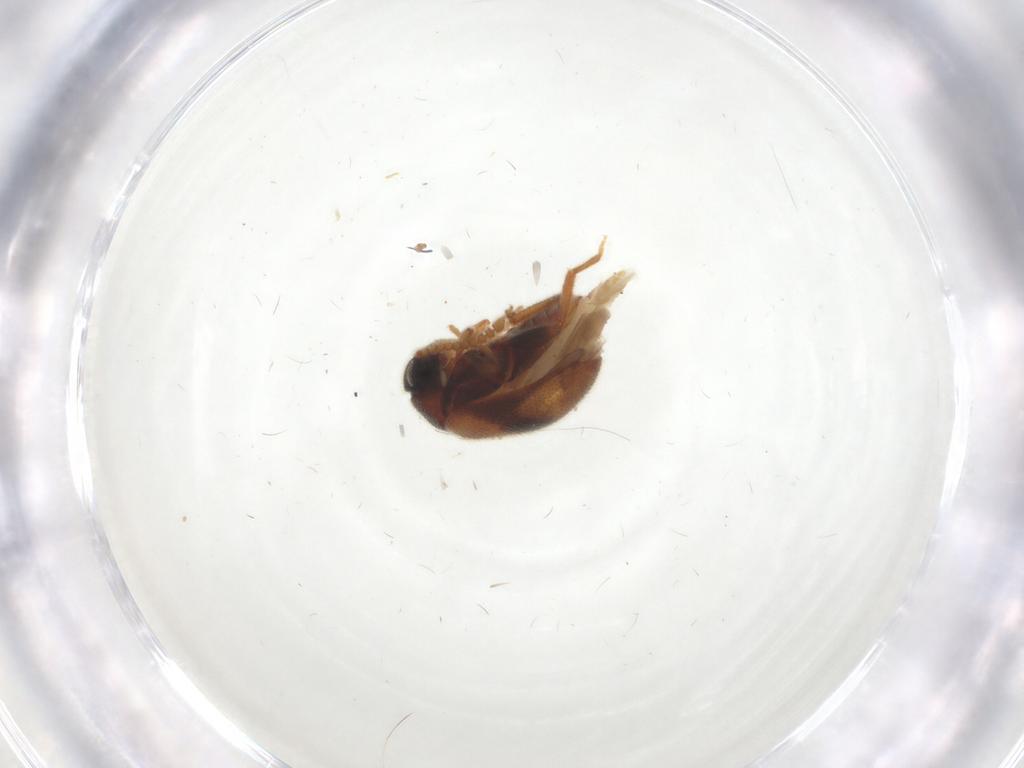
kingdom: Animalia
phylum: Arthropoda
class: Insecta
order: Coleoptera
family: Aderidae
